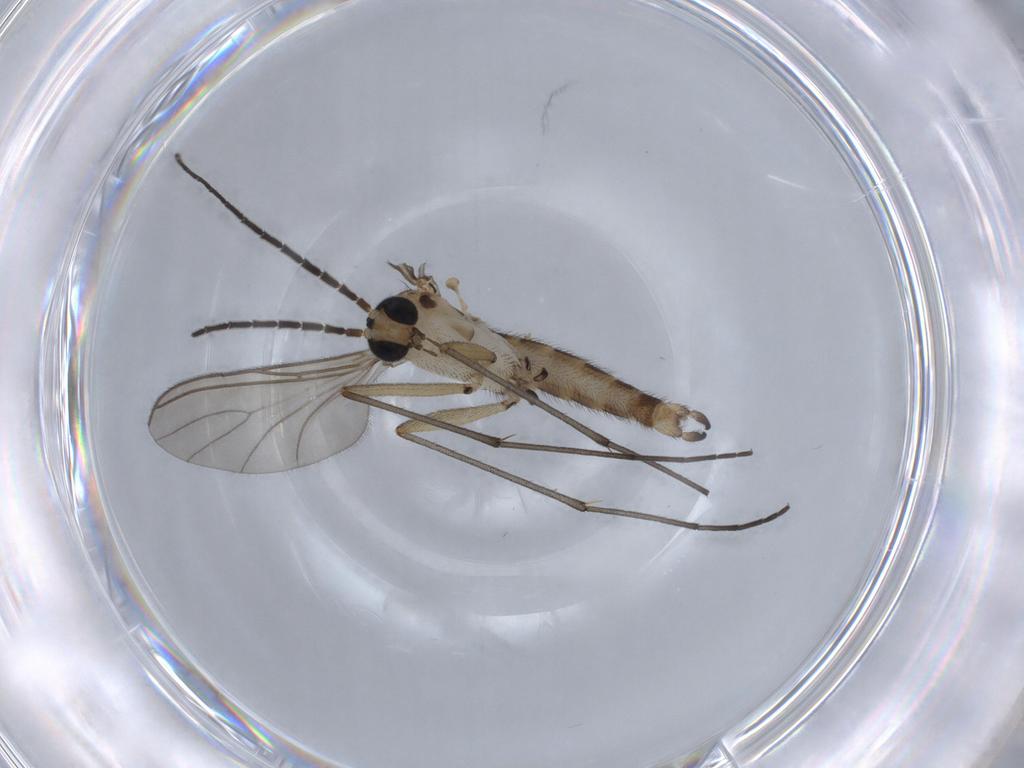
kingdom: Animalia
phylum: Arthropoda
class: Insecta
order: Diptera
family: Sciaridae
